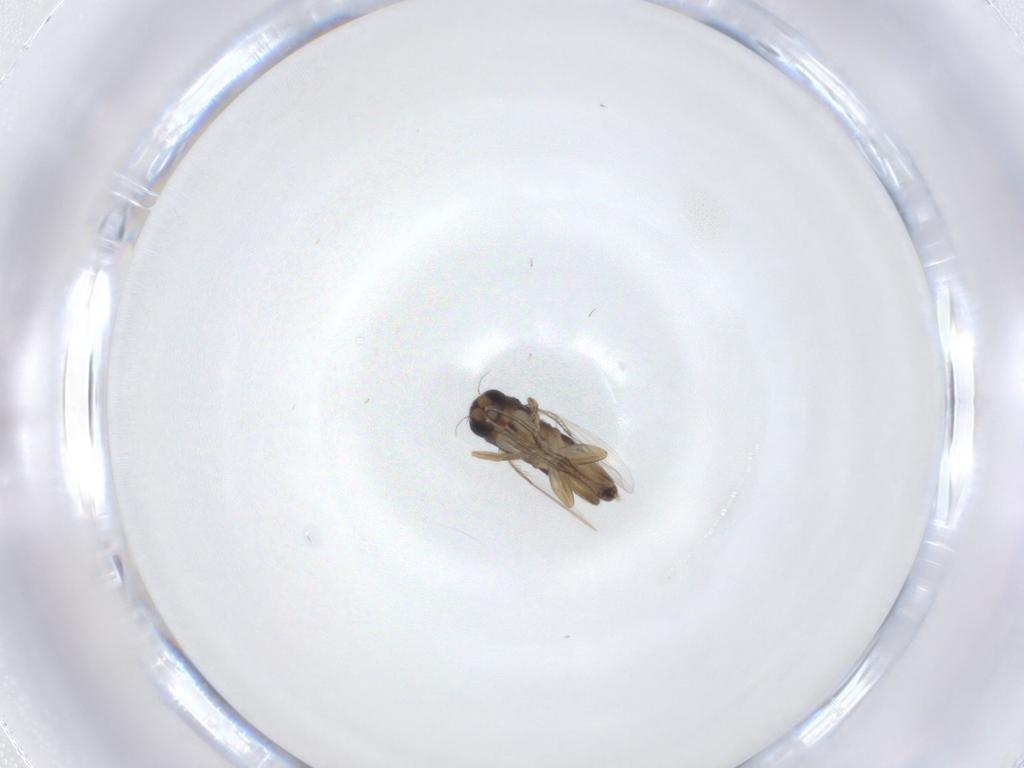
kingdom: Animalia
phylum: Arthropoda
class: Insecta
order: Diptera
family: Phoridae
